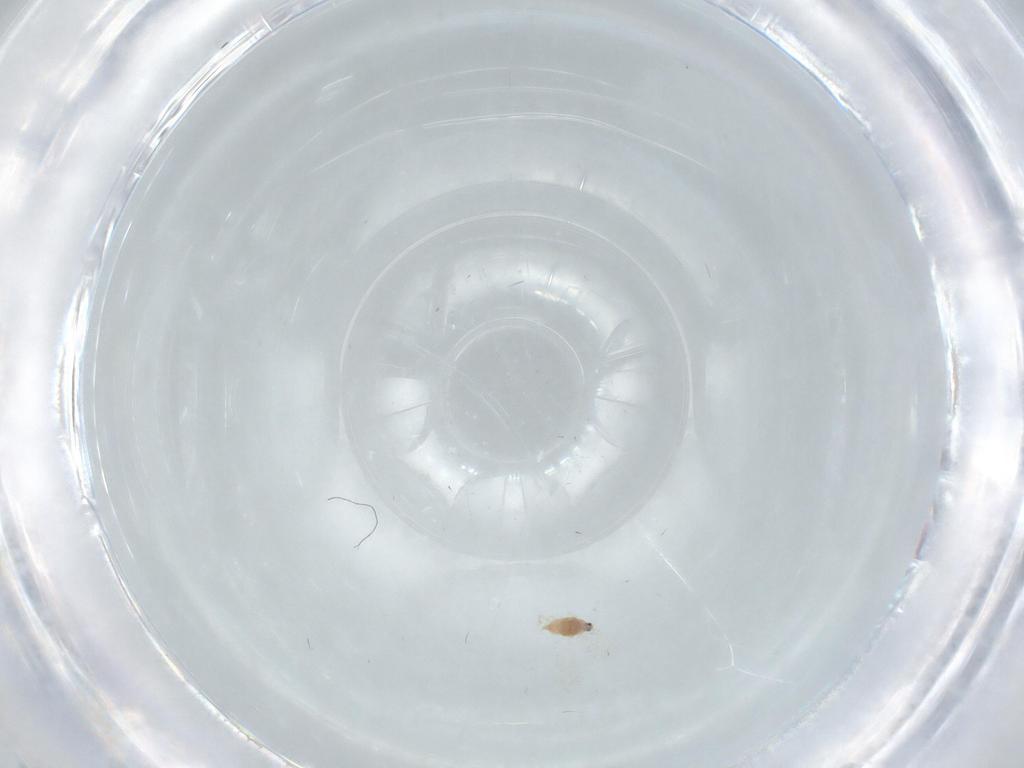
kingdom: Animalia
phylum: Arthropoda
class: Insecta
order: Hemiptera
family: Diaspididae
